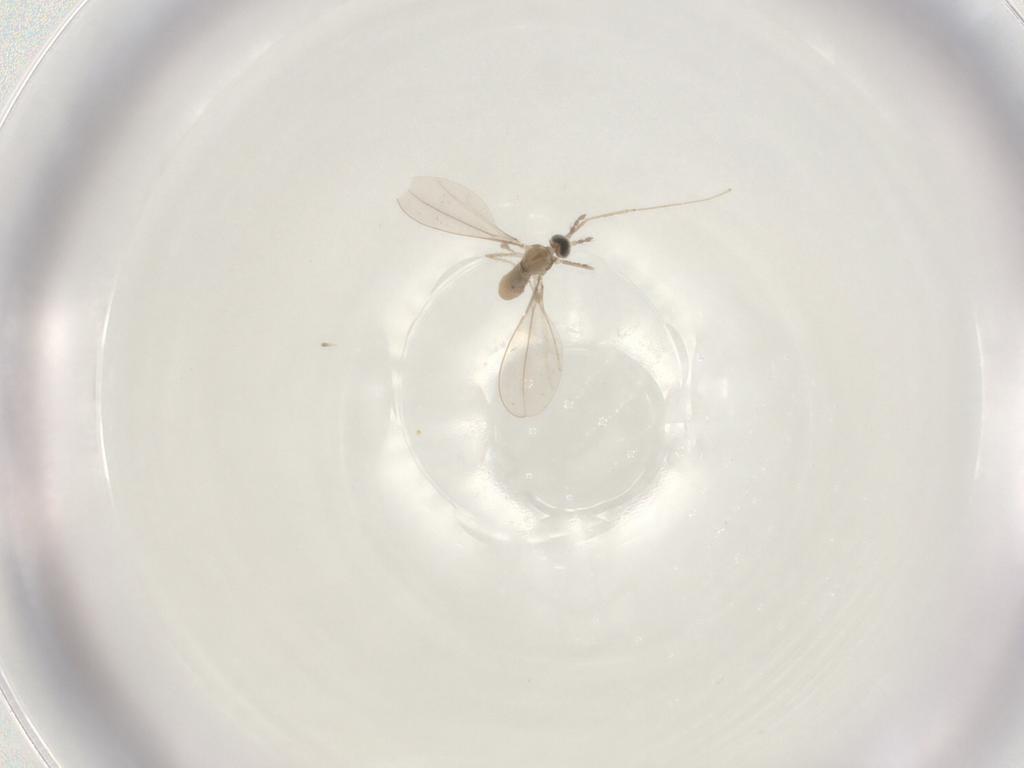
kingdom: Animalia
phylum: Arthropoda
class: Insecta
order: Diptera
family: Cecidomyiidae
